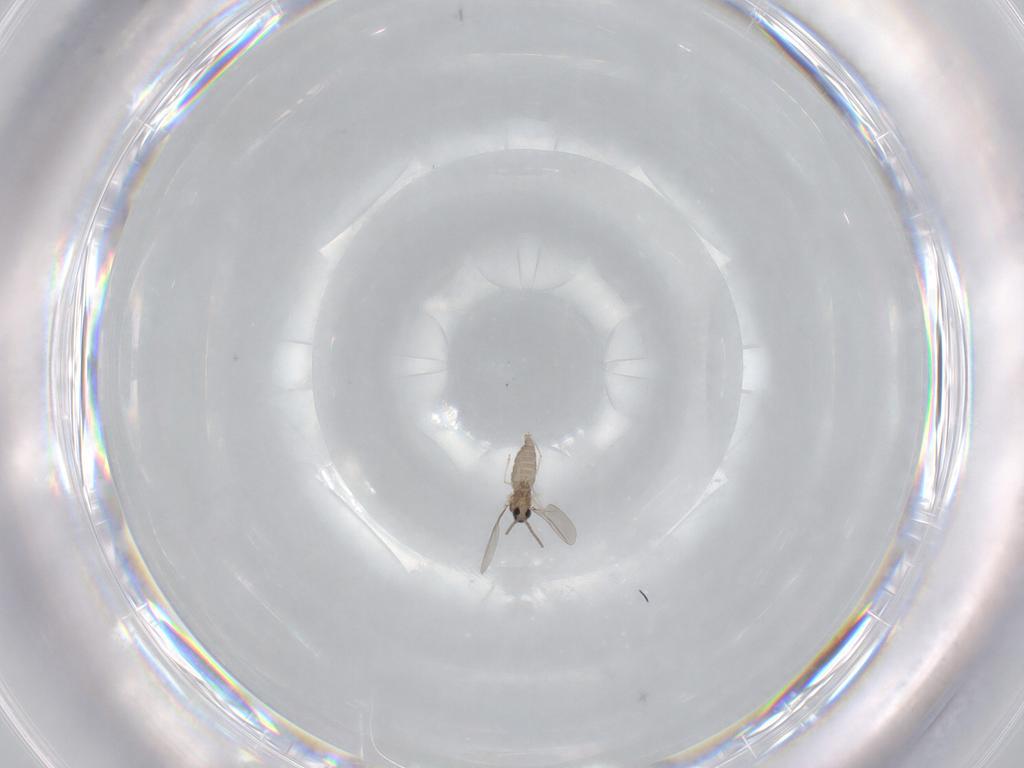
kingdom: Animalia
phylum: Arthropoda
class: Insecta
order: Diptera
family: Cecidomyiidae
